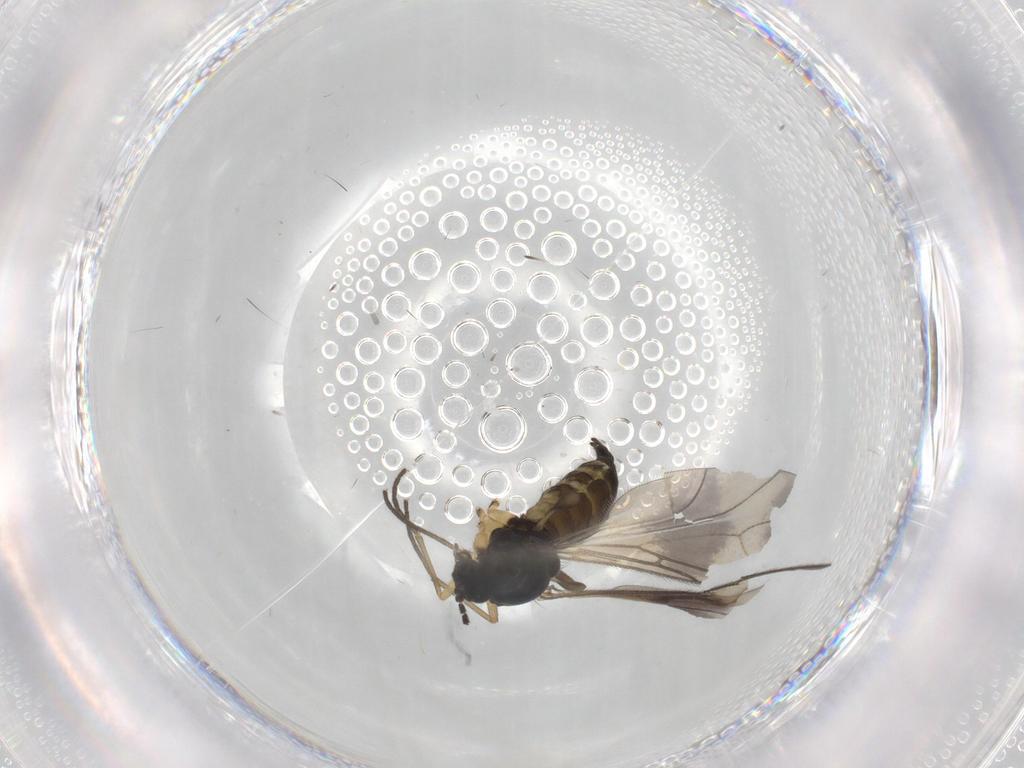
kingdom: Animalia
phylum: Arthropoda
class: Insecta
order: Diptera
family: Sciaridae
